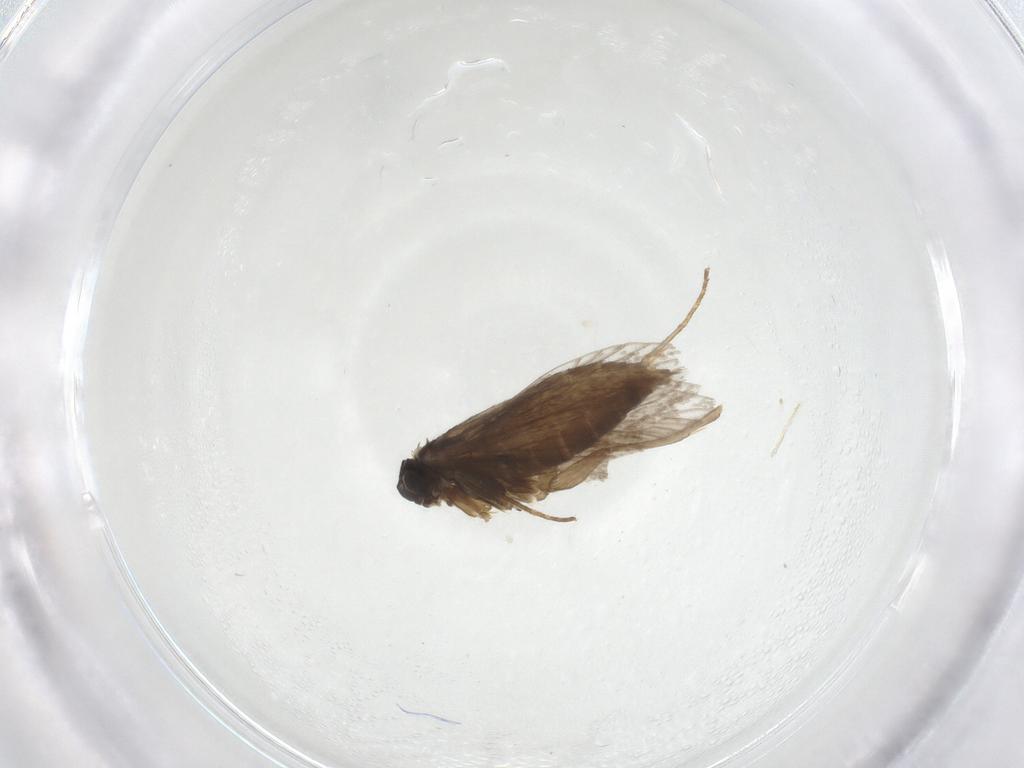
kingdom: Animalia
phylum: Arthropoda
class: Insecta
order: Lepidoptera
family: Micropterigidae
